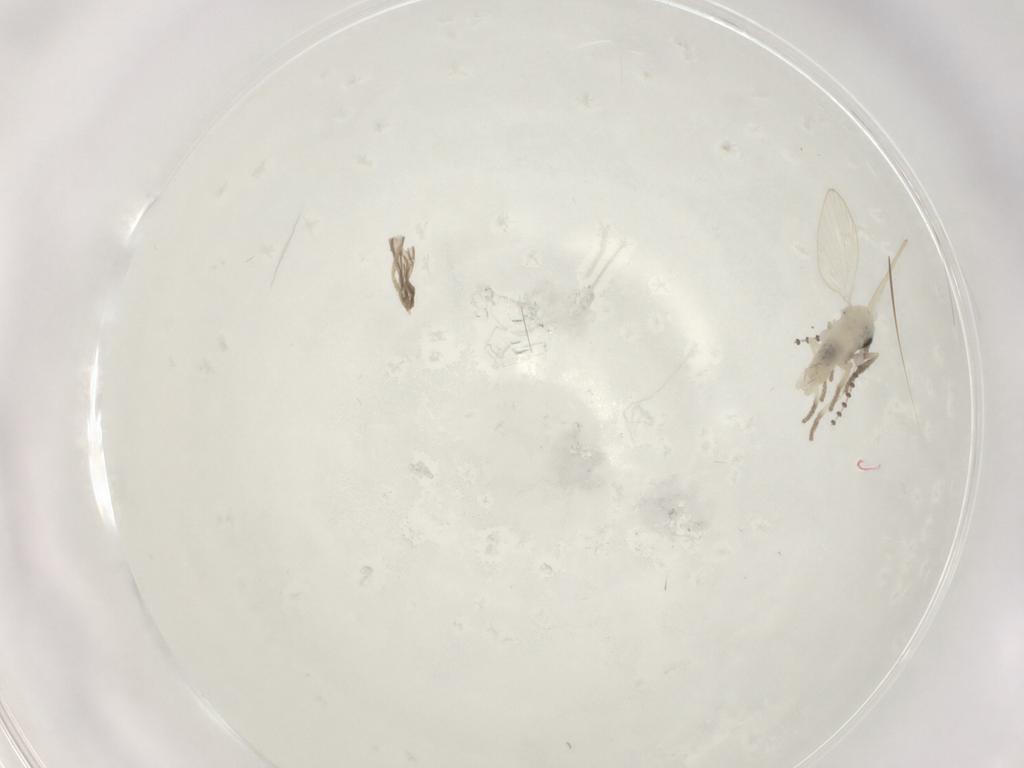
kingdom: Animalia
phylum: Arthropoda
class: Insecta
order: Diptera
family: Psychodidae
